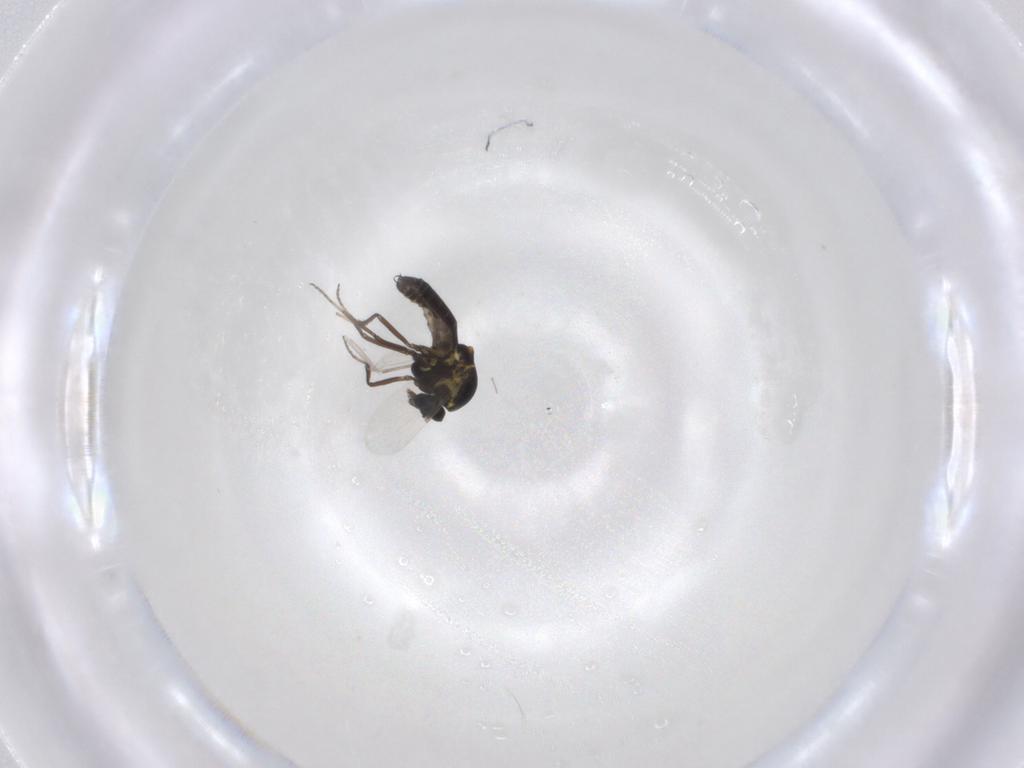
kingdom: Animalia
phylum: Arthropoda
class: Insecta
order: Diptera
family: Ceratopogonidae
